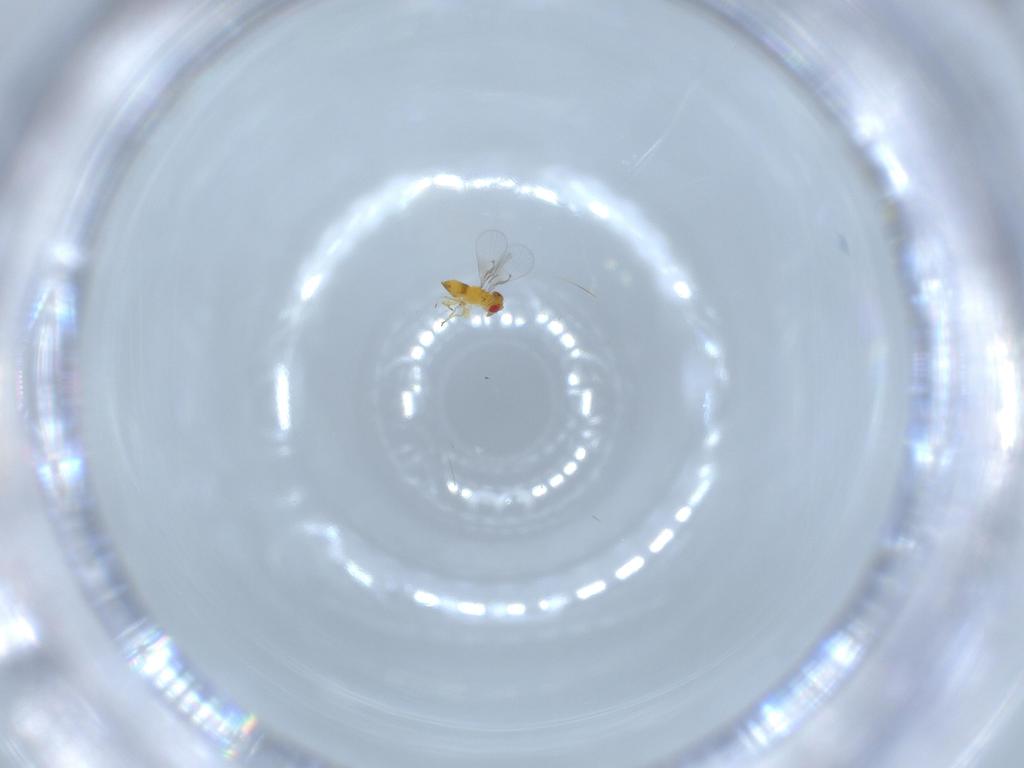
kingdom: Animalia
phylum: Arthropoda
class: Insecta
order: Hymenoptera
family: Trichogrammatidae
